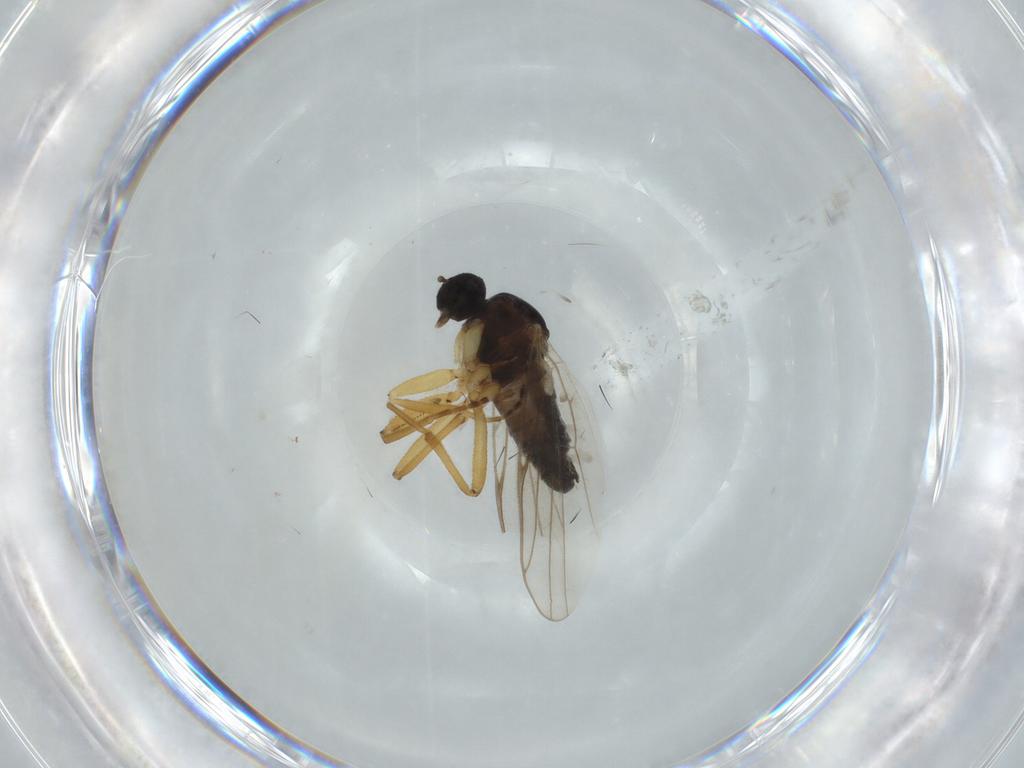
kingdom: Animalia
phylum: Arthropoda
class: Insecta
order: Diptera
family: Hybotidae
